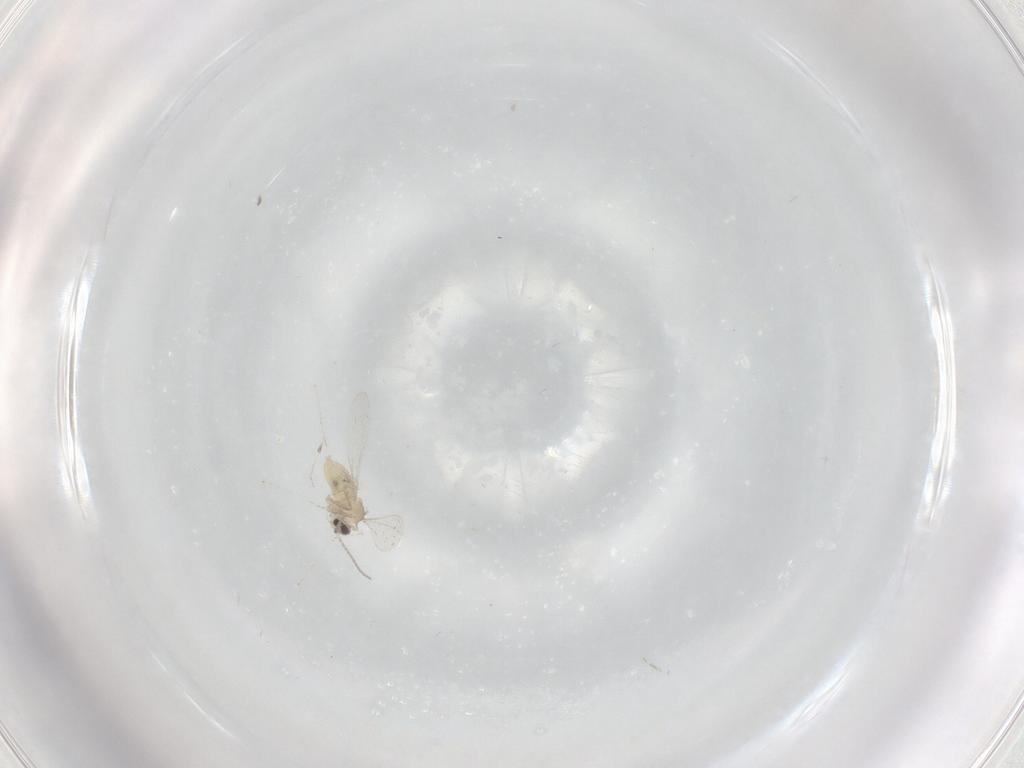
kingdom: Animalia
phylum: Arthropoda
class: Insecta
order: Diptera
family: Cecidomyiidae
